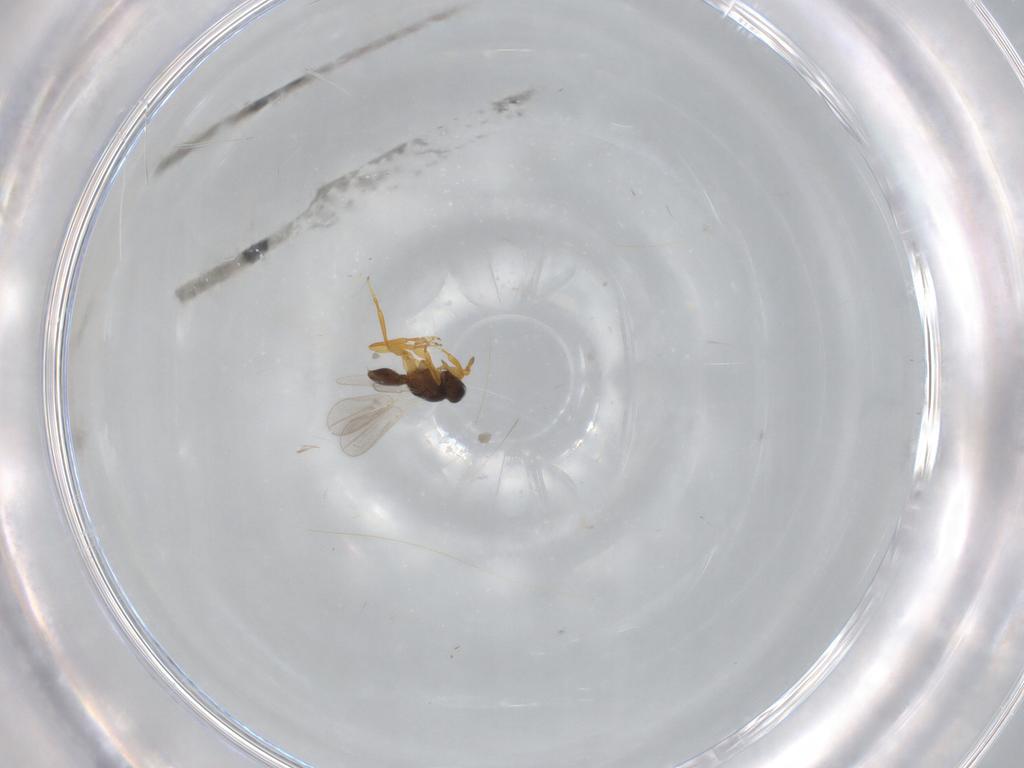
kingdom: Animalia
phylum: Arthropoda
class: Insecta
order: Hymenoptera
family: Platygastridae
